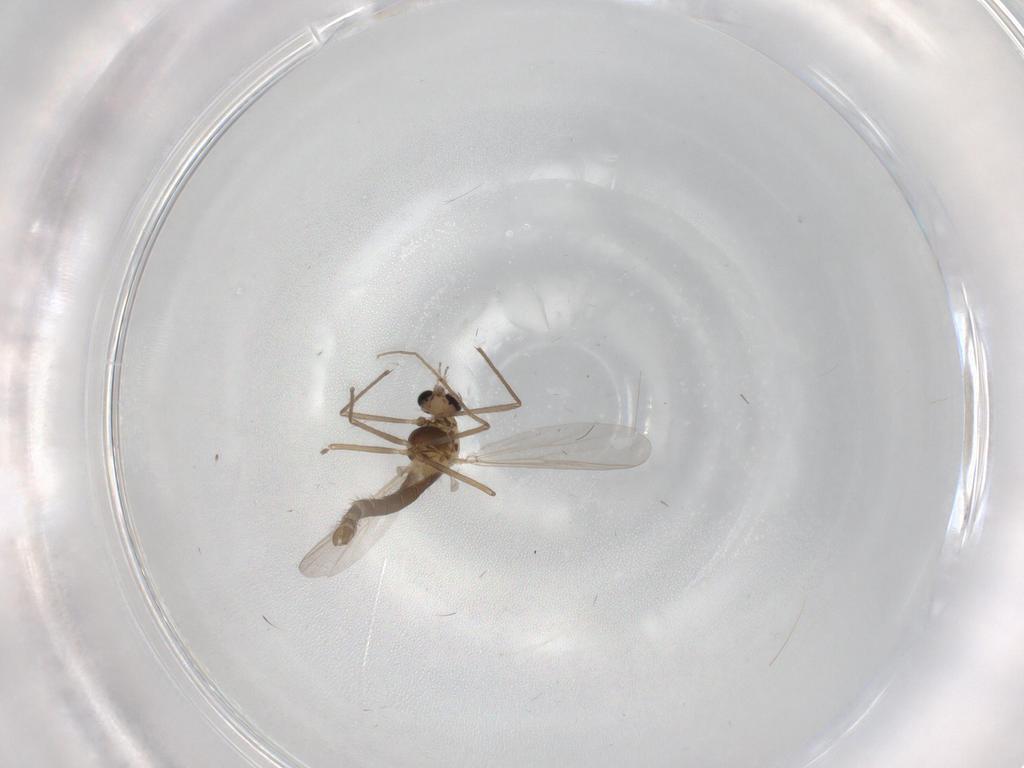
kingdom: Animalia
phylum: Arthropoda
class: Insecta
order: Diptera
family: Chironomidae
